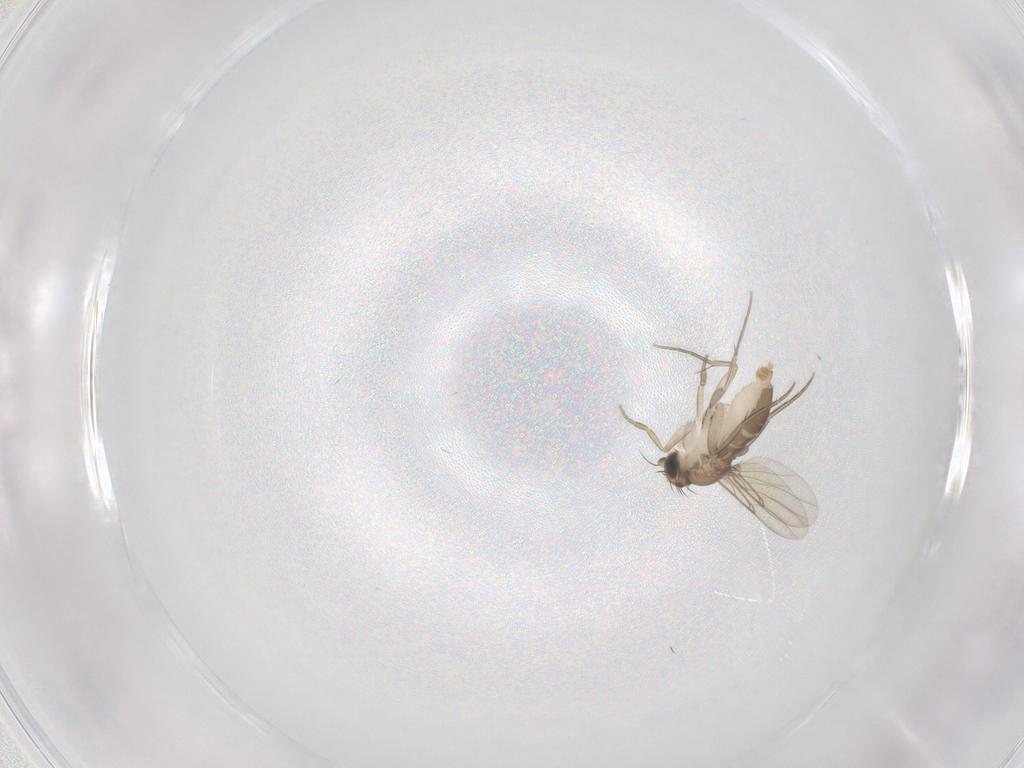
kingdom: Animalia
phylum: Arthropoda
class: Insecta
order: Diptera
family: Phoridae
